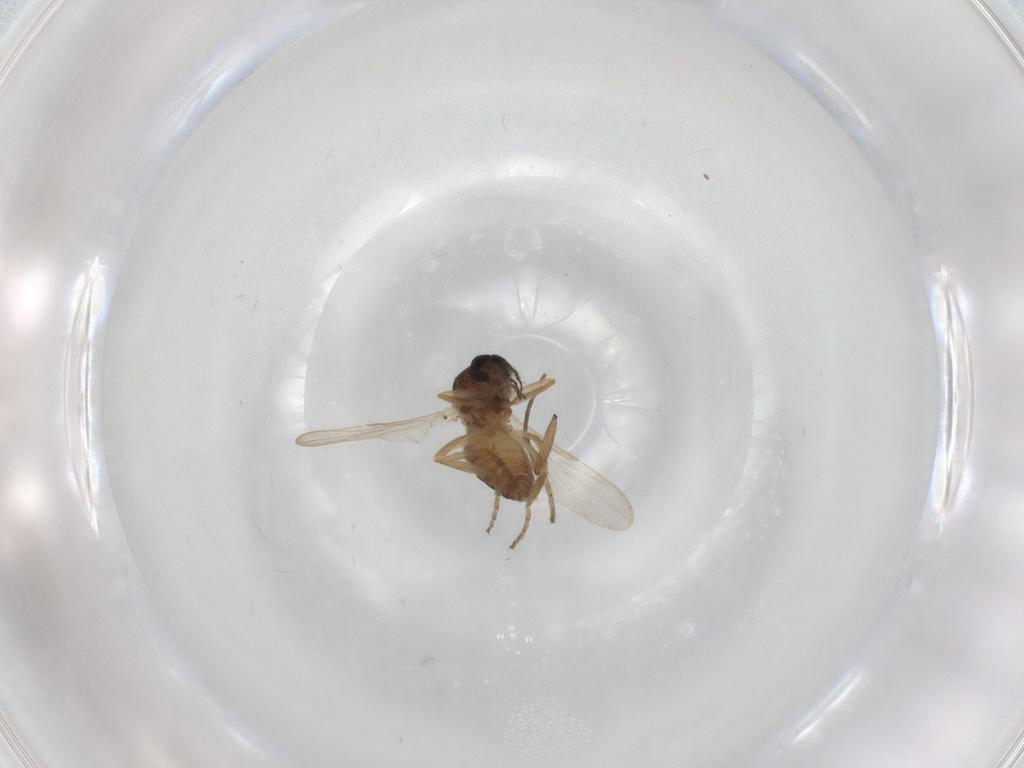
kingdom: Animalia
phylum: Arthropoda
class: Insecta
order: Diptera
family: Ceratopogonidae
